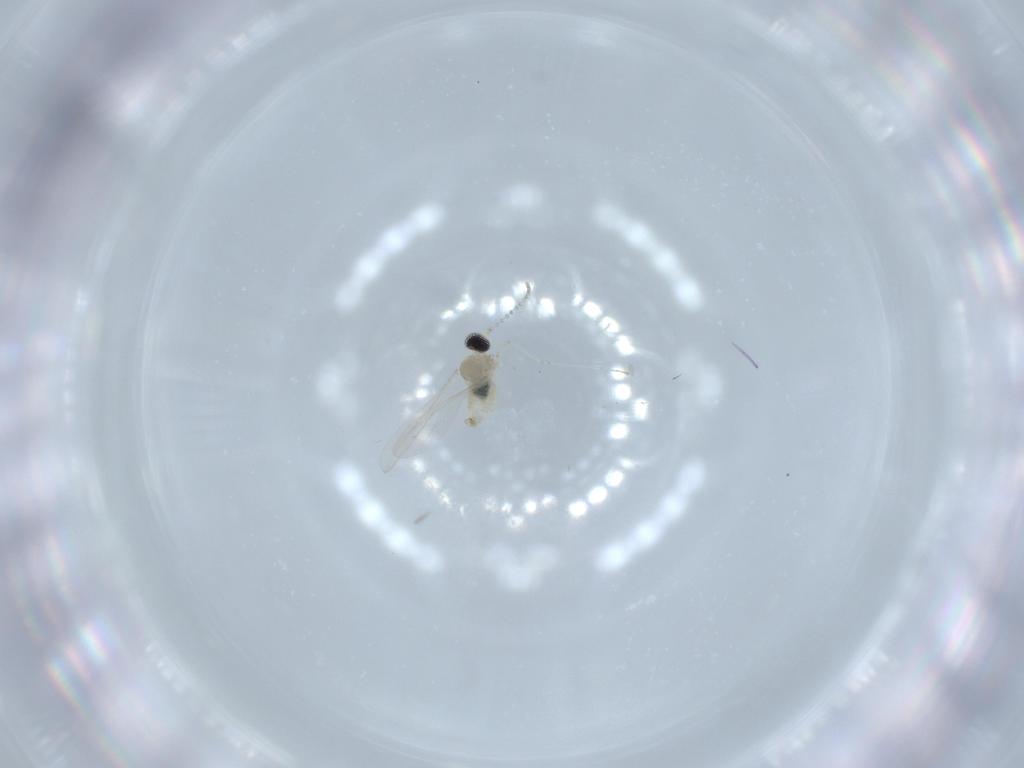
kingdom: Animalia
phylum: Arthropoda
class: Insecta
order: Diptera
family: Cecidomyiidae
